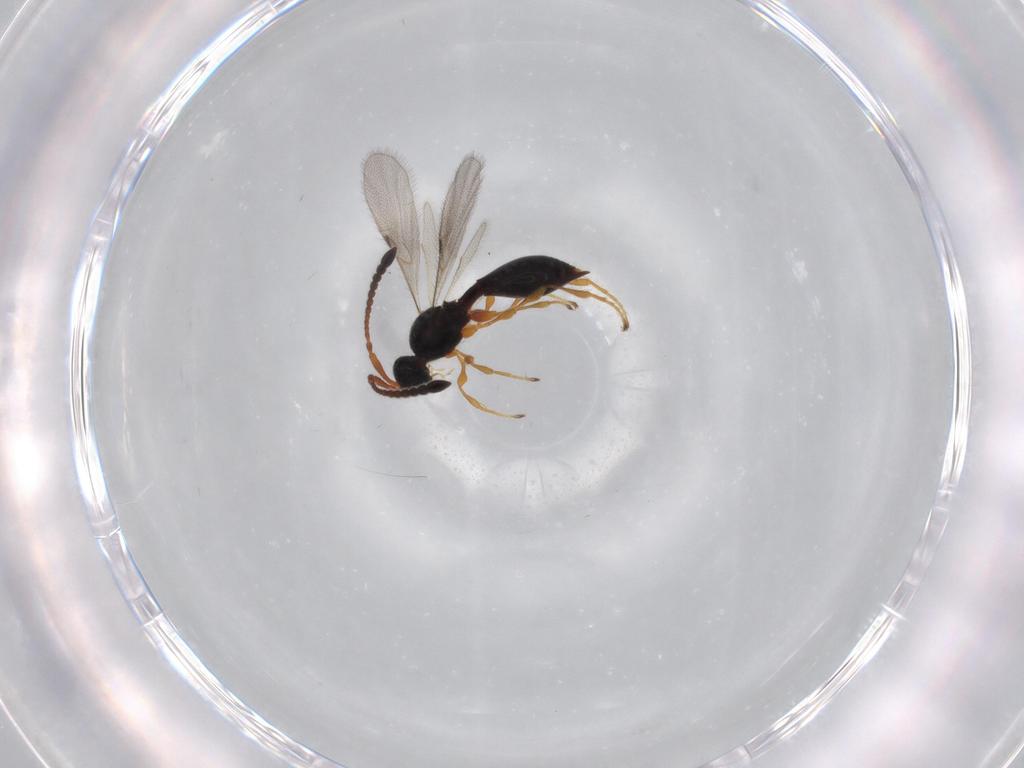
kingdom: Animalia
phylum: Arthropoda
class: Insecta
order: Hymenoptera
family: Diapriidae
